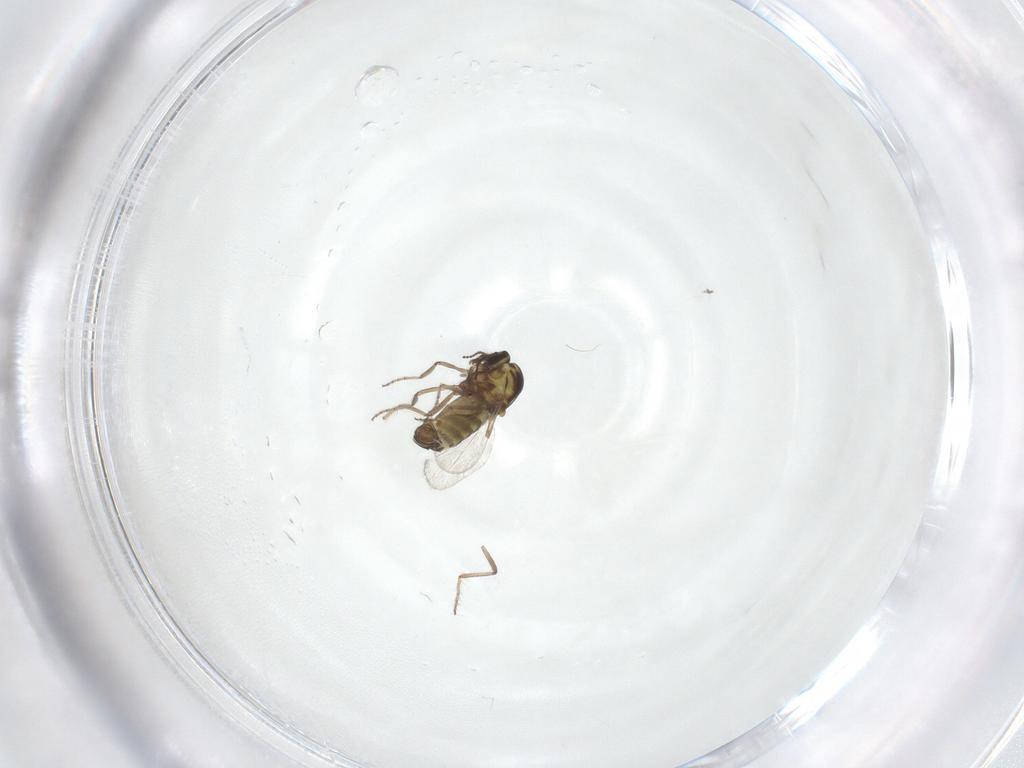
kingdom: Animalia
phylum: Arthropoda
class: Insecta
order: Diptera
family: Ceratopogonidae
